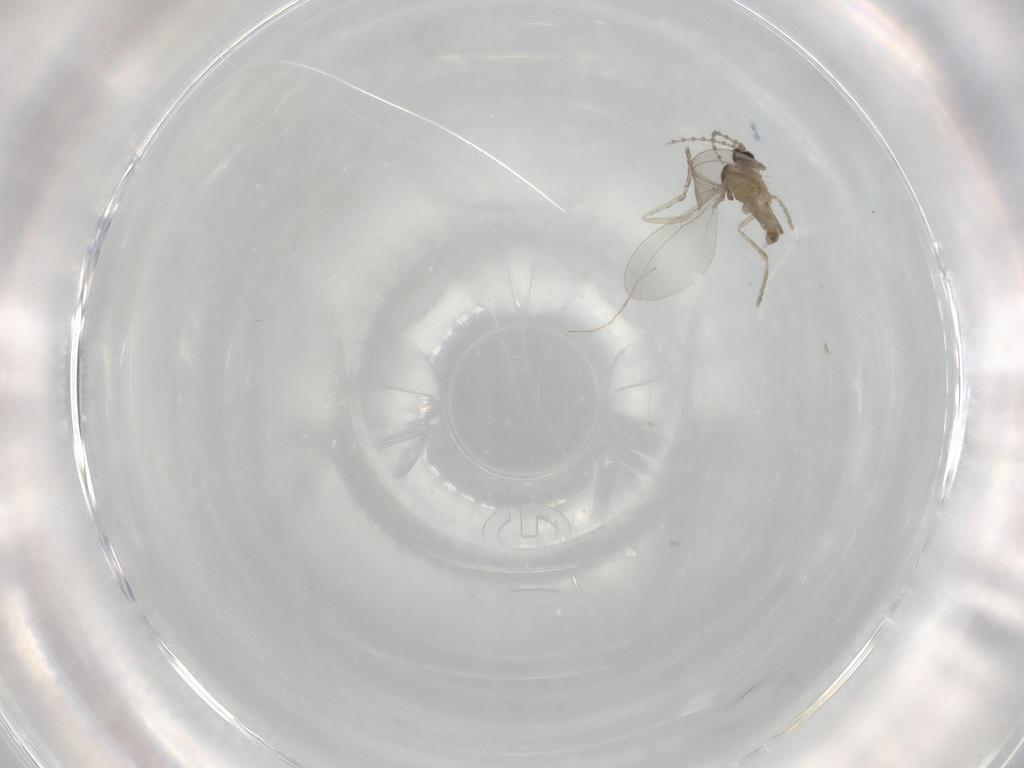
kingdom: Animalia
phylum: Arthropoda
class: Insecta
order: Diptera
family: Cecidomyiidae
